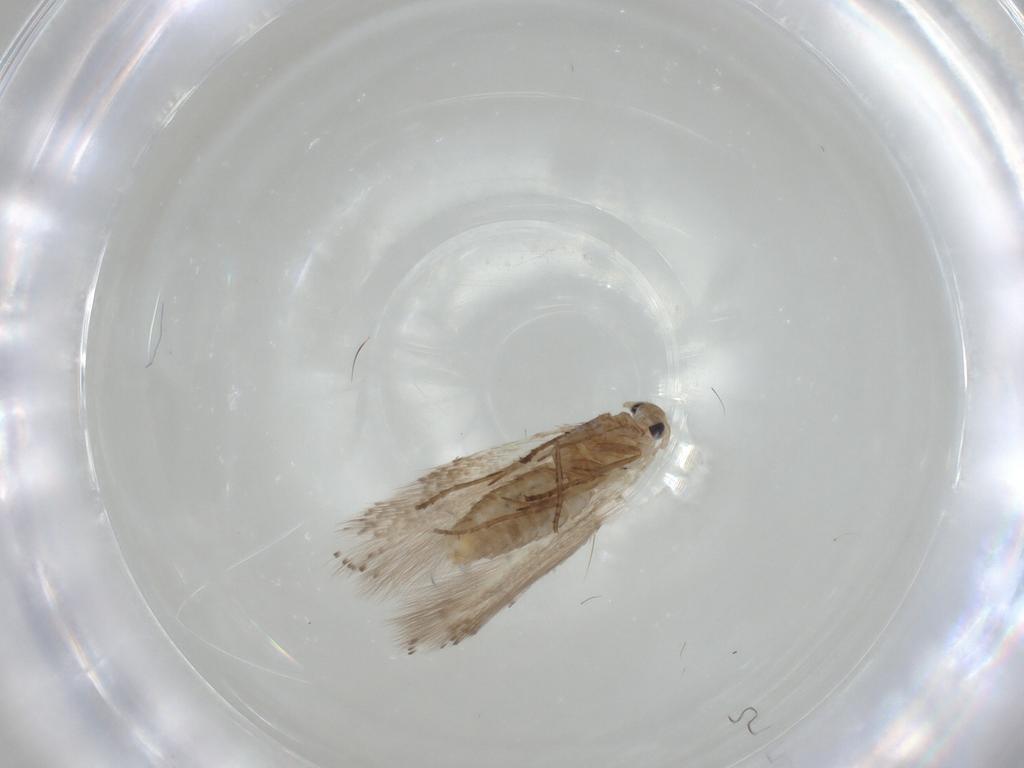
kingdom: Animalia
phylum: Arthropoda
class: Insecta
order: Lepidoptera
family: Bucculatricidae
